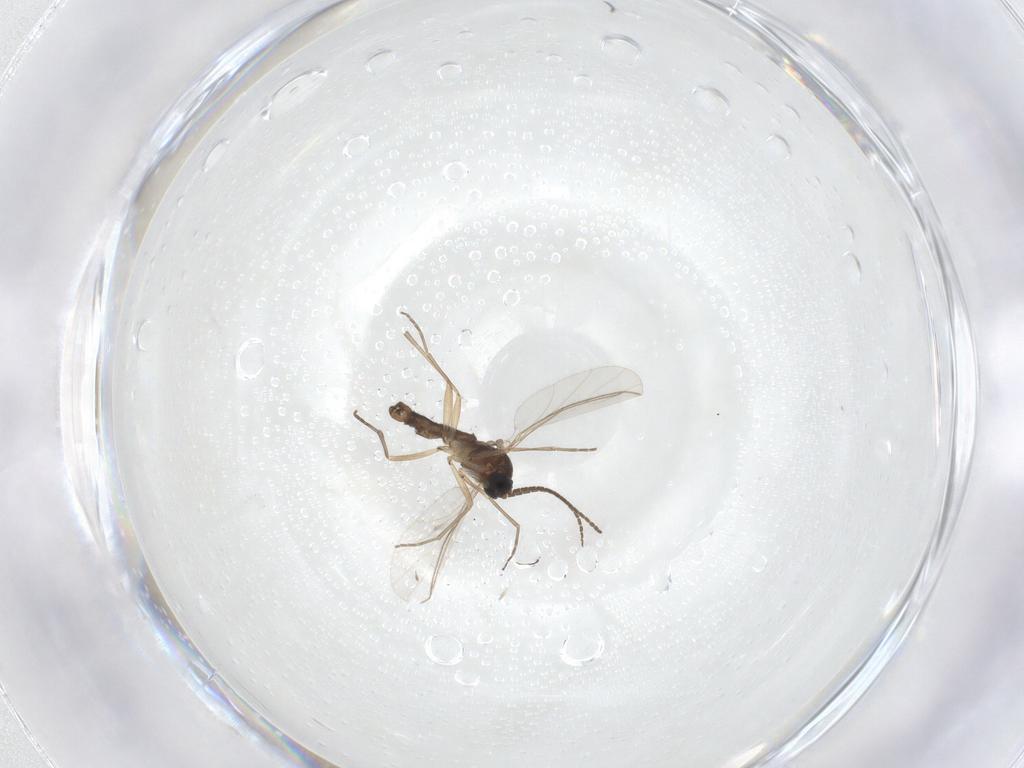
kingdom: Animalia
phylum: Arthropoda
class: Insecta
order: Diptera
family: Sciaridae
